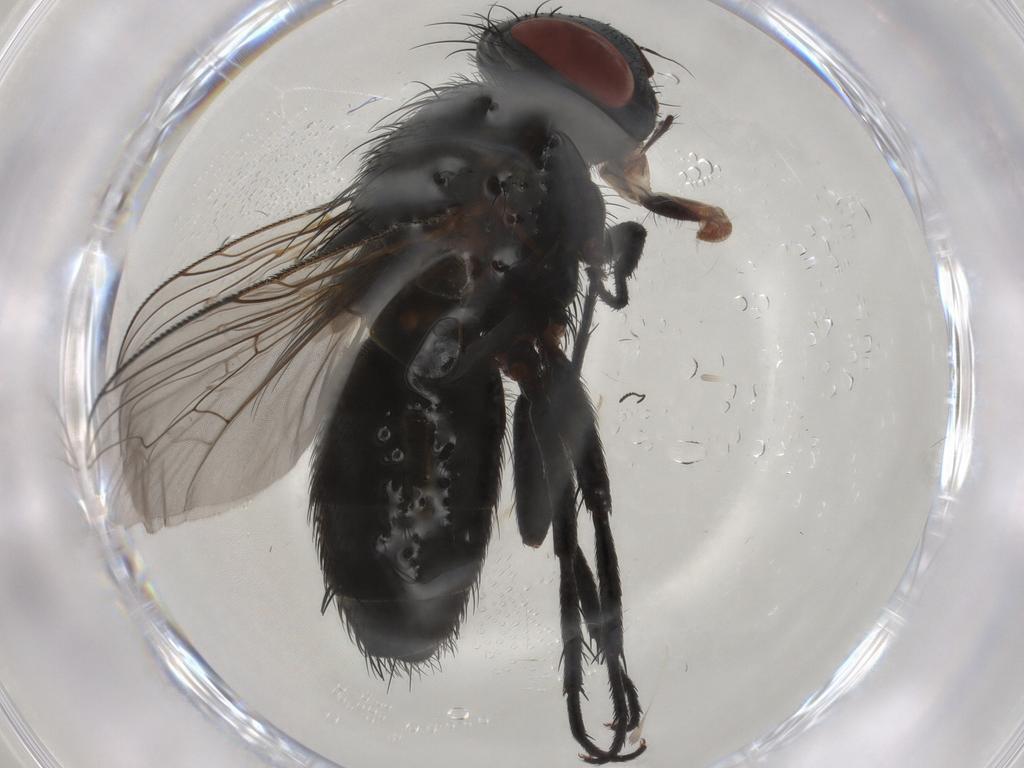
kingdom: Animalia
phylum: Arthropoda
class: Insecta
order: Diptera
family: Sarcophagidae
